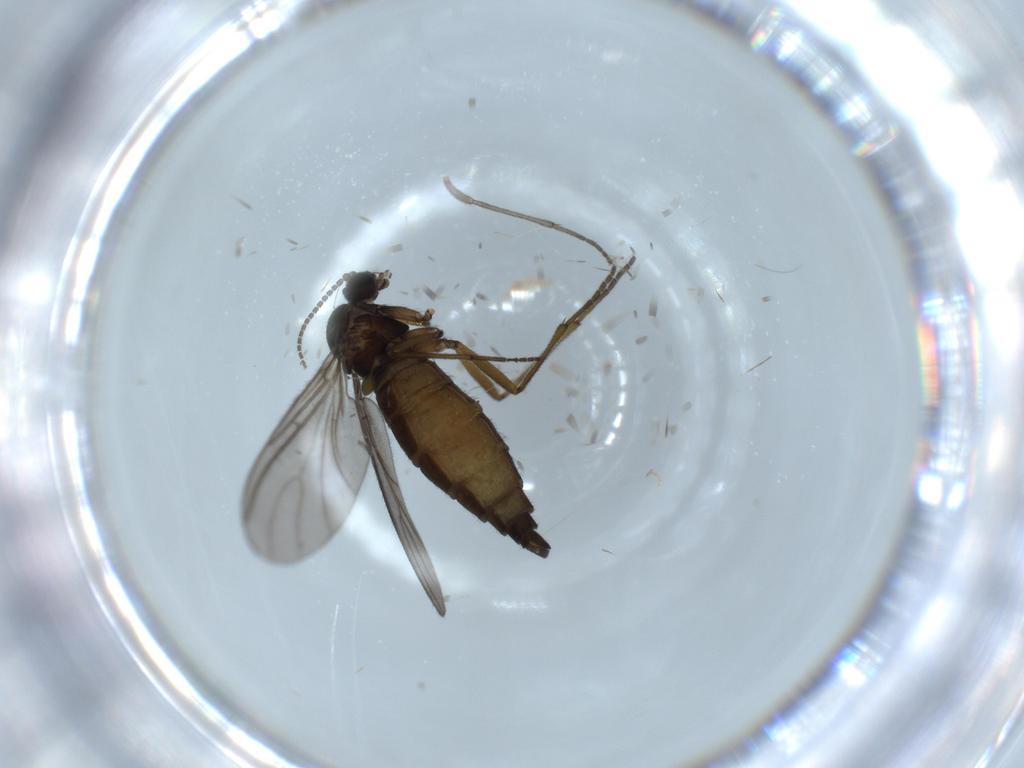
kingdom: Animalia
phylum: Arthropoda
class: Insecta
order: Diptera
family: Sciaridae
